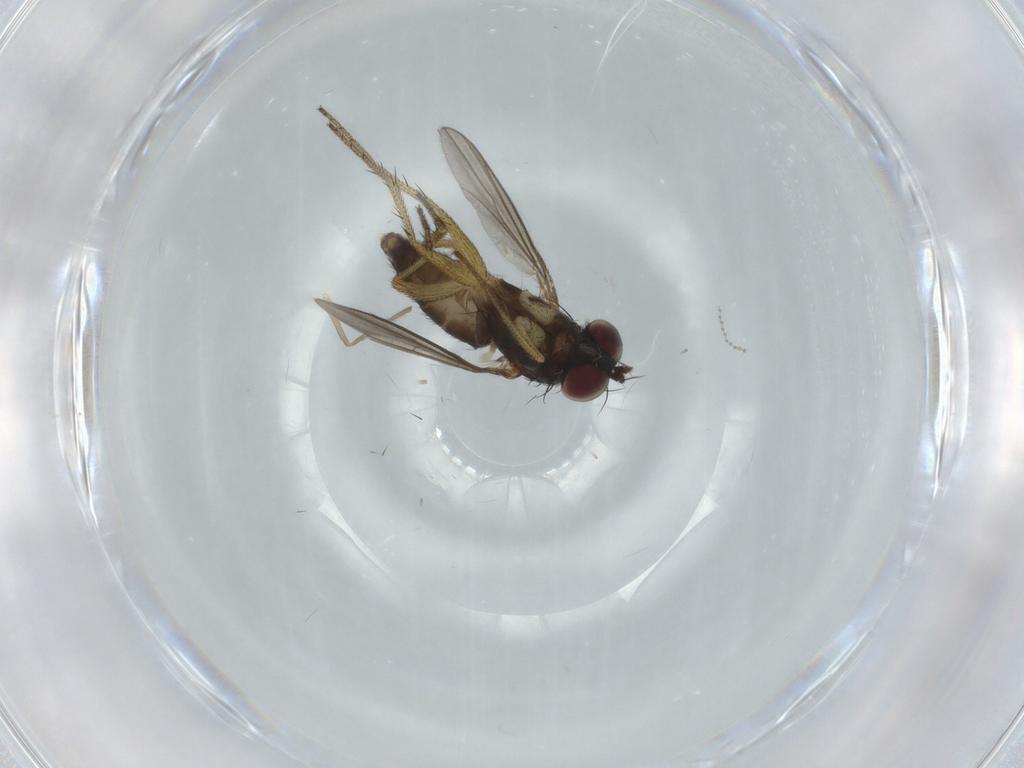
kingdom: Animalia
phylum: Arthropoda
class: Insecta
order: Diptera
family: Dolichopodidae
